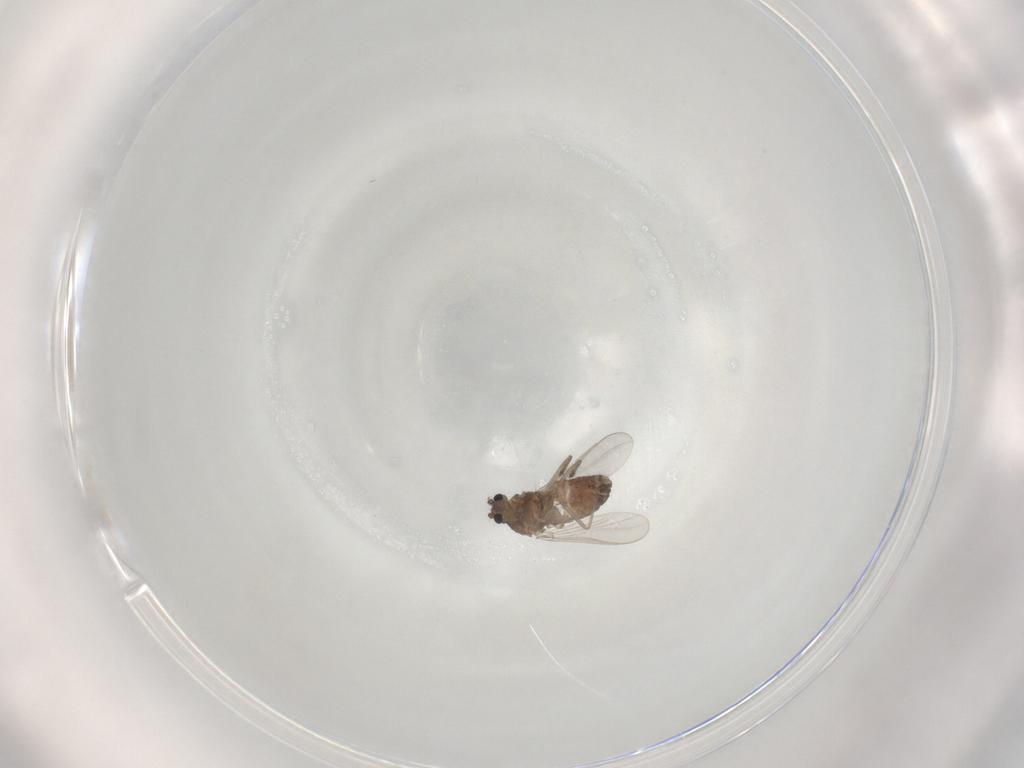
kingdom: Animalia
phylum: Arthropoda
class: Insecta
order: Diptera
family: Chironomidae
